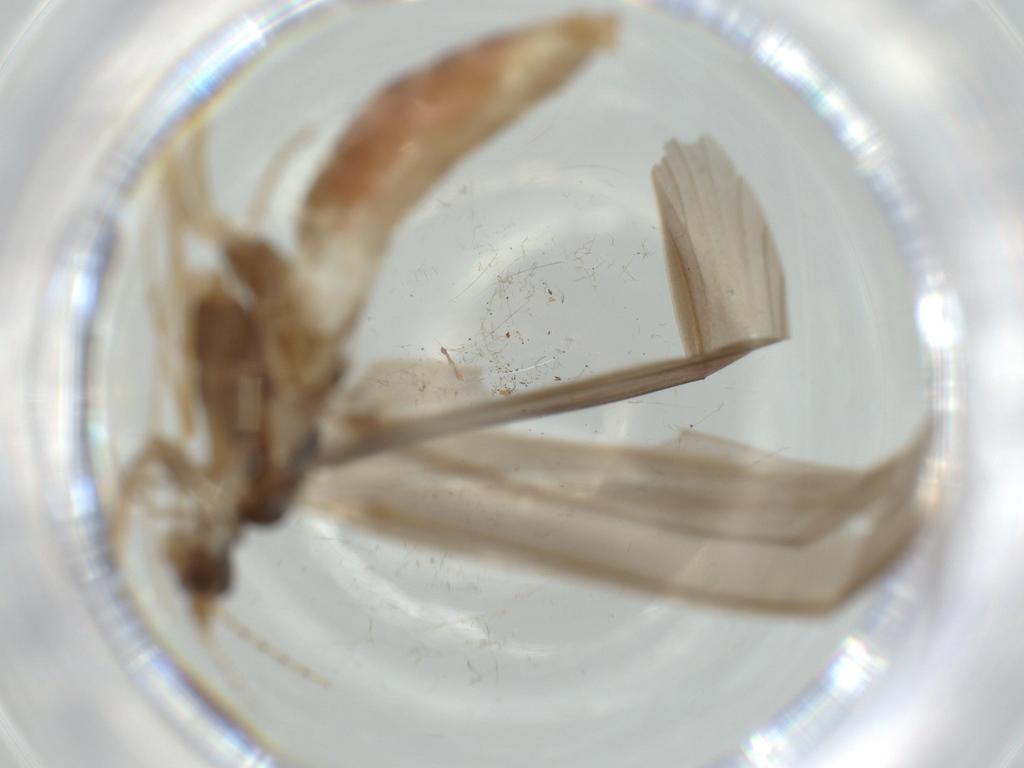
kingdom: Animalia
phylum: Arthropoda
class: Insecta
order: Trichoptera
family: Leptoceridae
